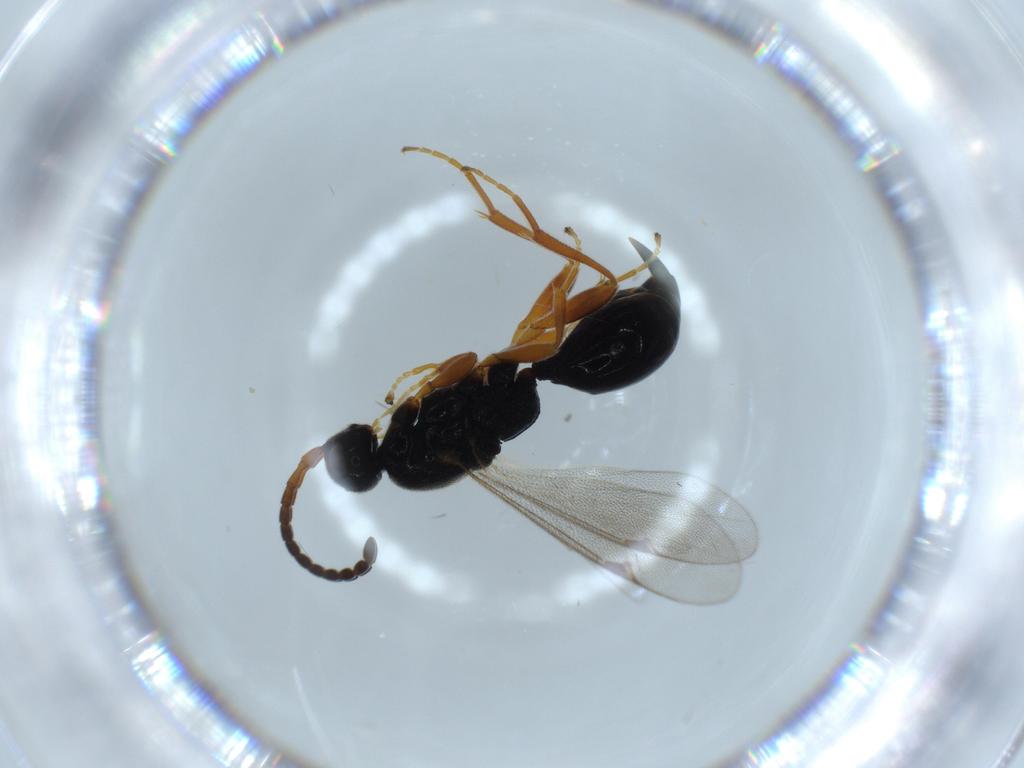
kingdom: Animalia
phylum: Arthropoda
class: Insecta
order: Hymenoptera
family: Proctotrupidae
